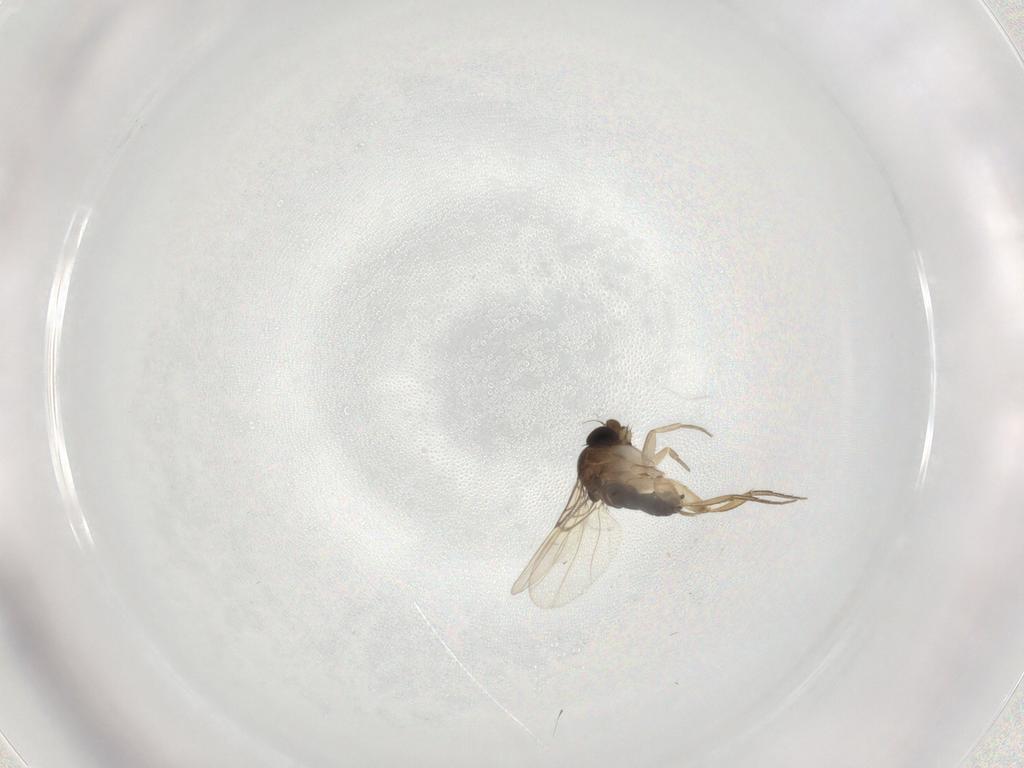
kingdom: Animalia
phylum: Arthropoda
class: Insecta
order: Diptera
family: Phoridae
